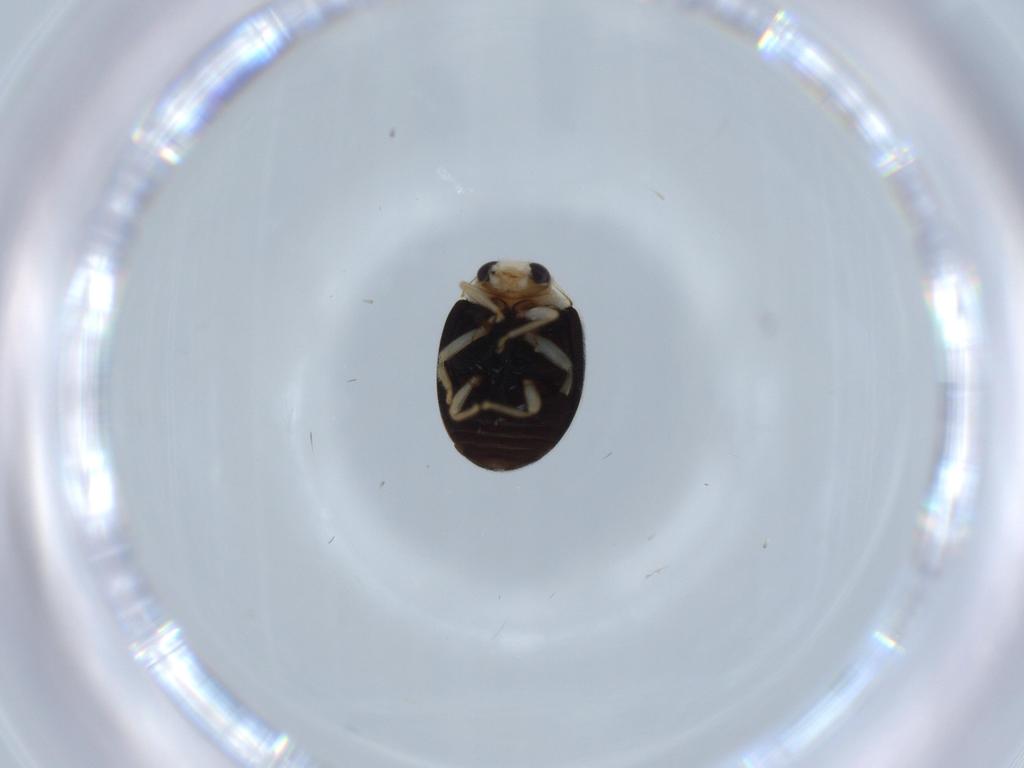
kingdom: Animalia
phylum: Arthropoda
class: Insecta
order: Coleoptera
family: Coccinellidae
